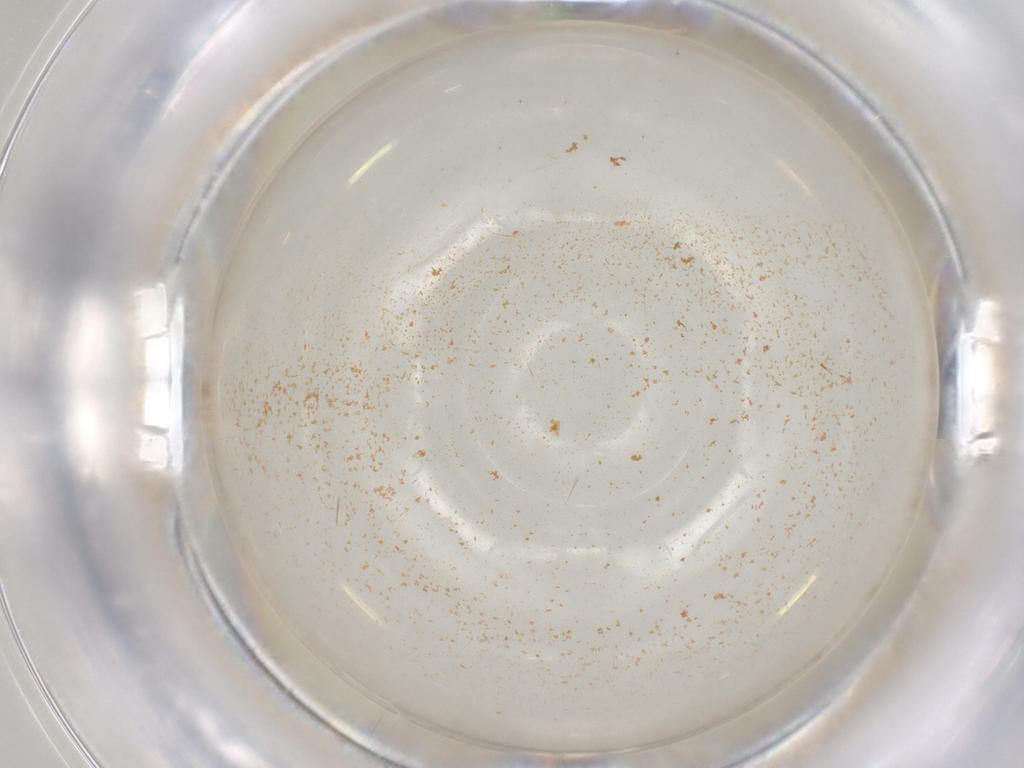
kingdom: Animalia
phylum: Arthropoda
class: Insecta
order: Diptera
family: Cecidomyiidae
